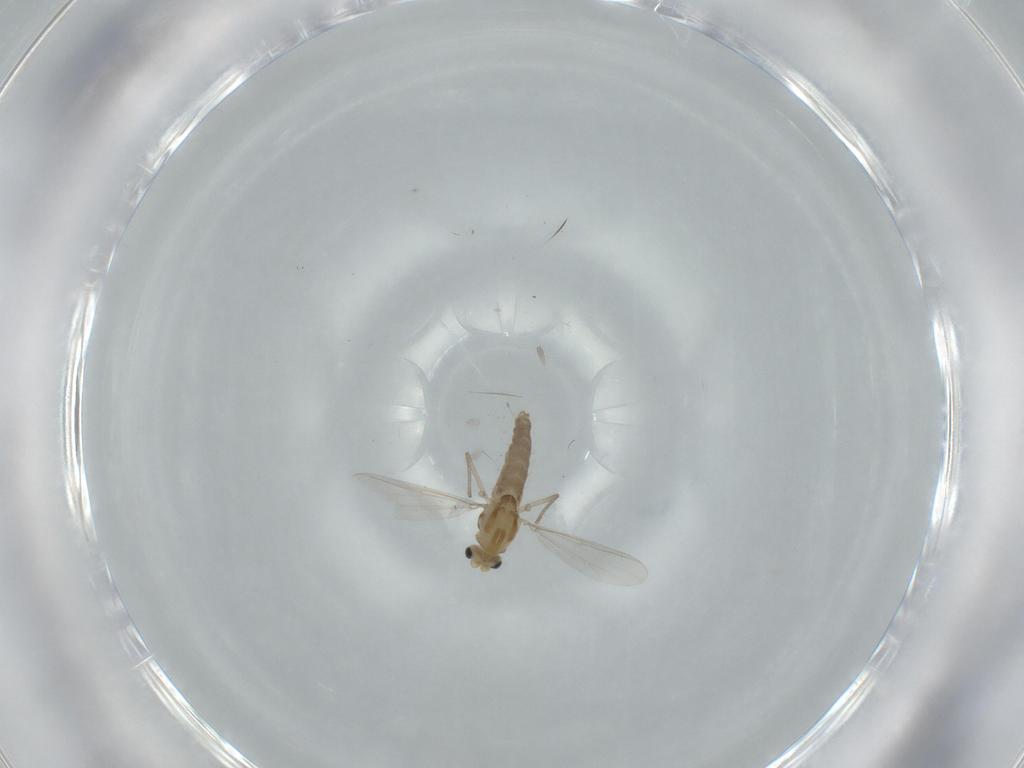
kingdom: Animalia
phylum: Arthropoda
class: Insecta
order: Diptera
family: Chironomidae
